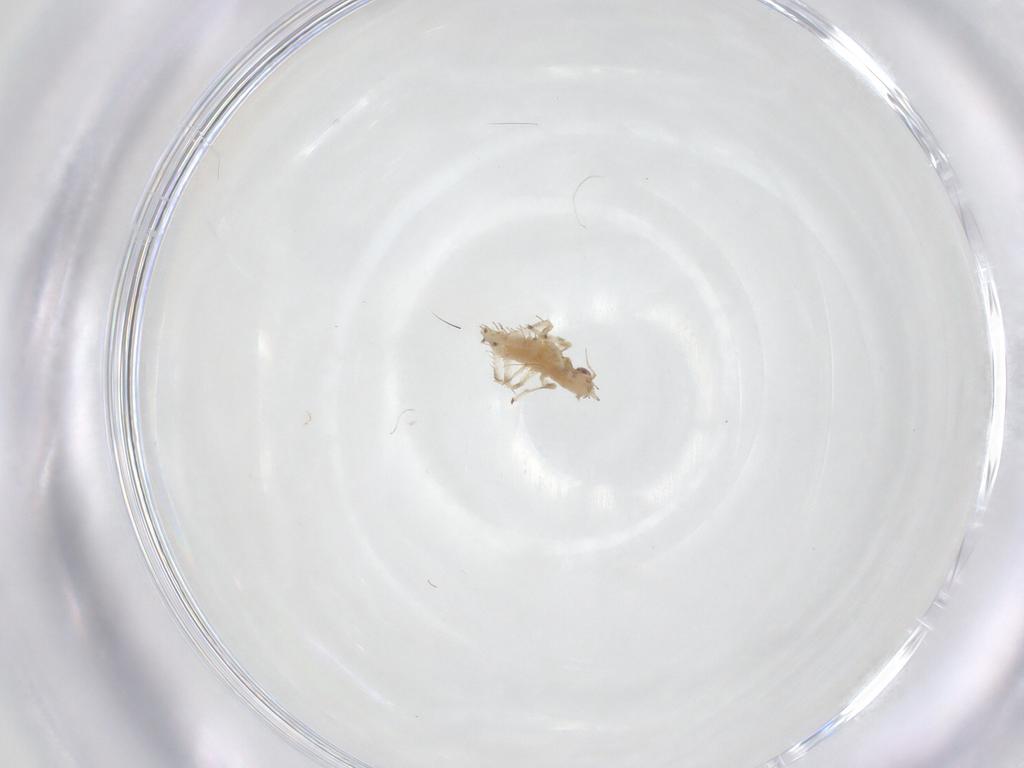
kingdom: Animalia
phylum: Arthropoda
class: Insecta
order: Hemiptera
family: Cicadellidae
